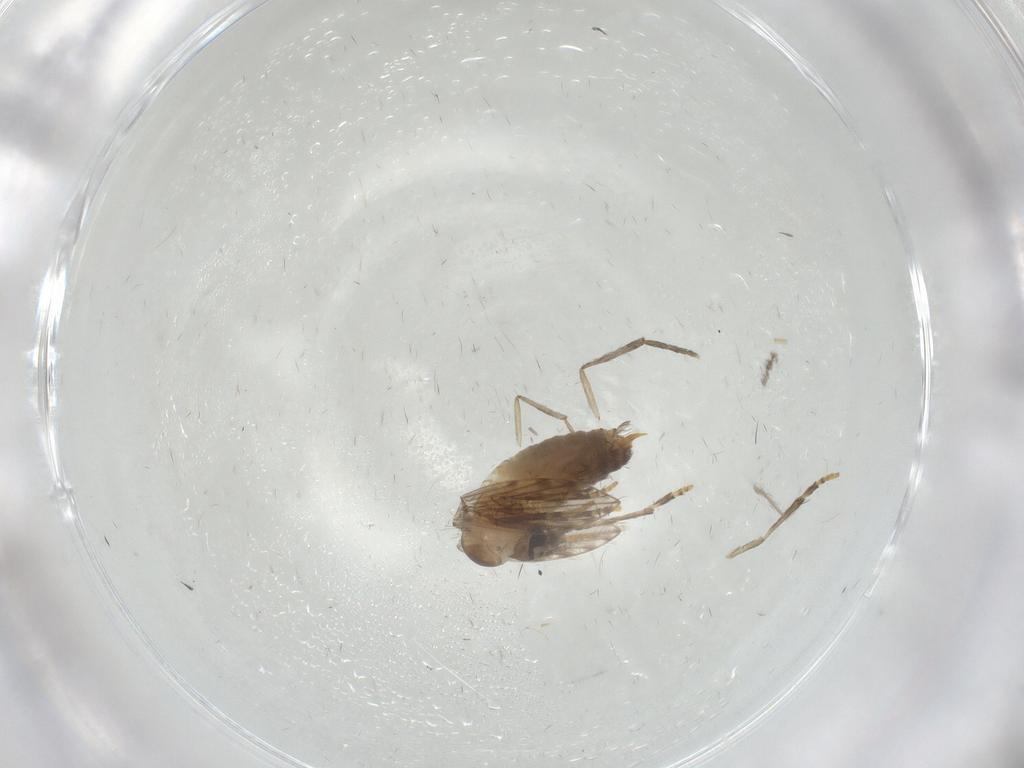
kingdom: Animalia
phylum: Arthropoda
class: Insecta
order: Diptera
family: Psychodidae
